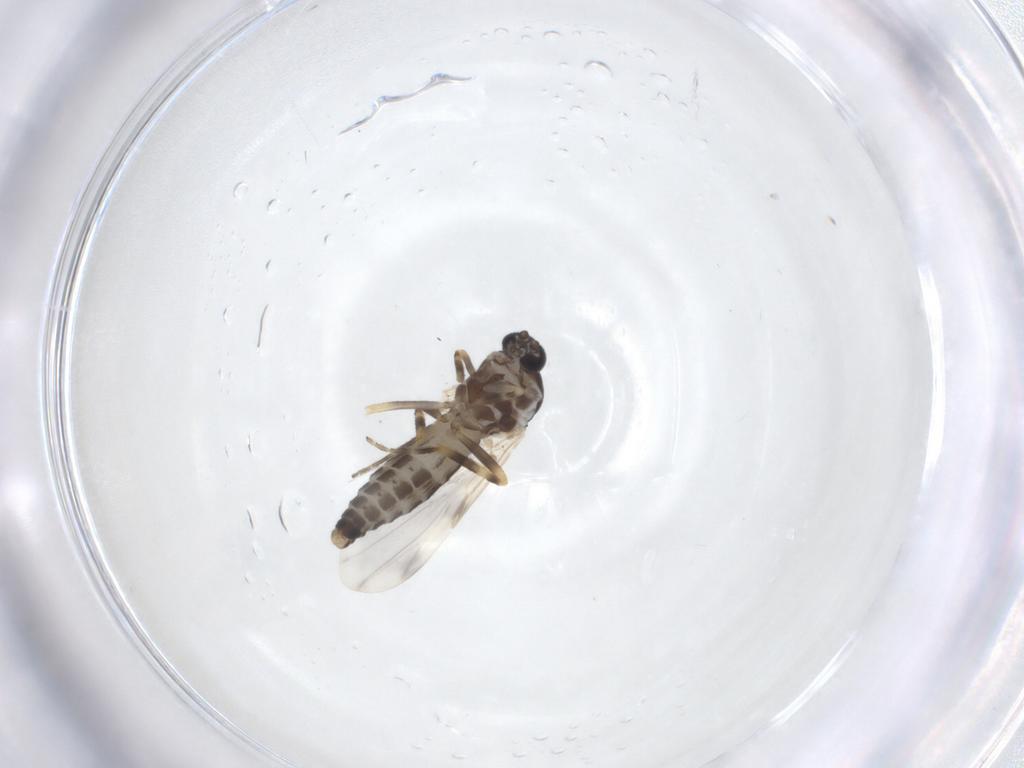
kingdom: Animalia
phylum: Arthropoda
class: Insecta
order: Diptera
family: Ceratopogonidae
